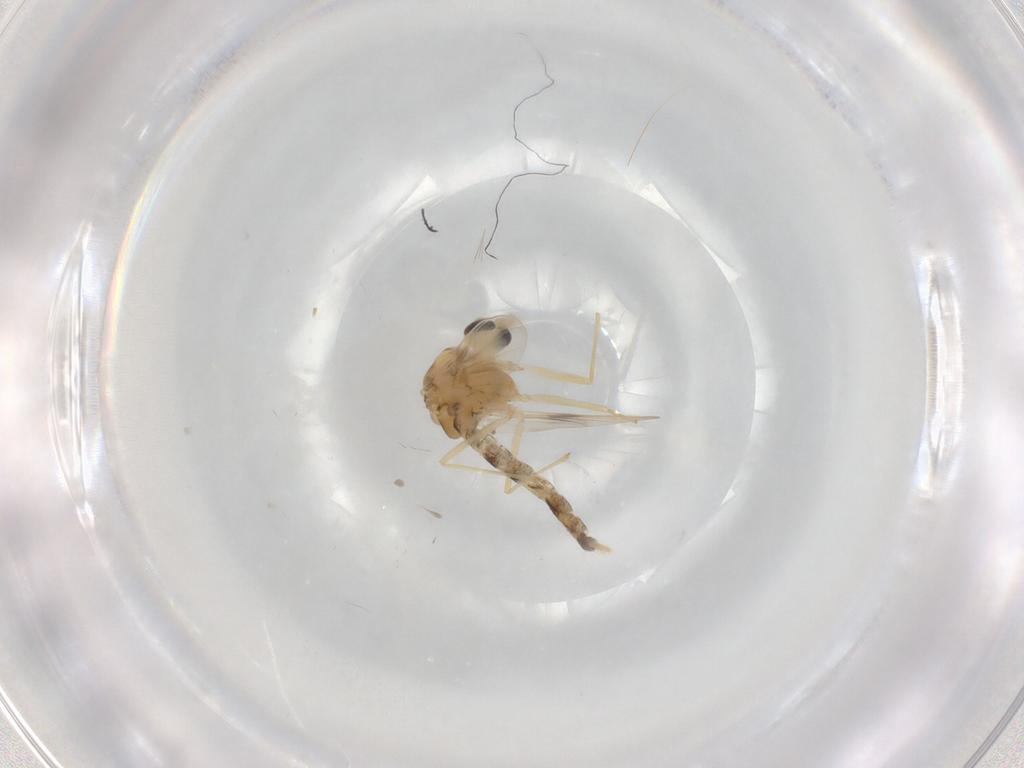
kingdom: Animalia
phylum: Arthropoda
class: Insecta
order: Diptera
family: Chironomidae
